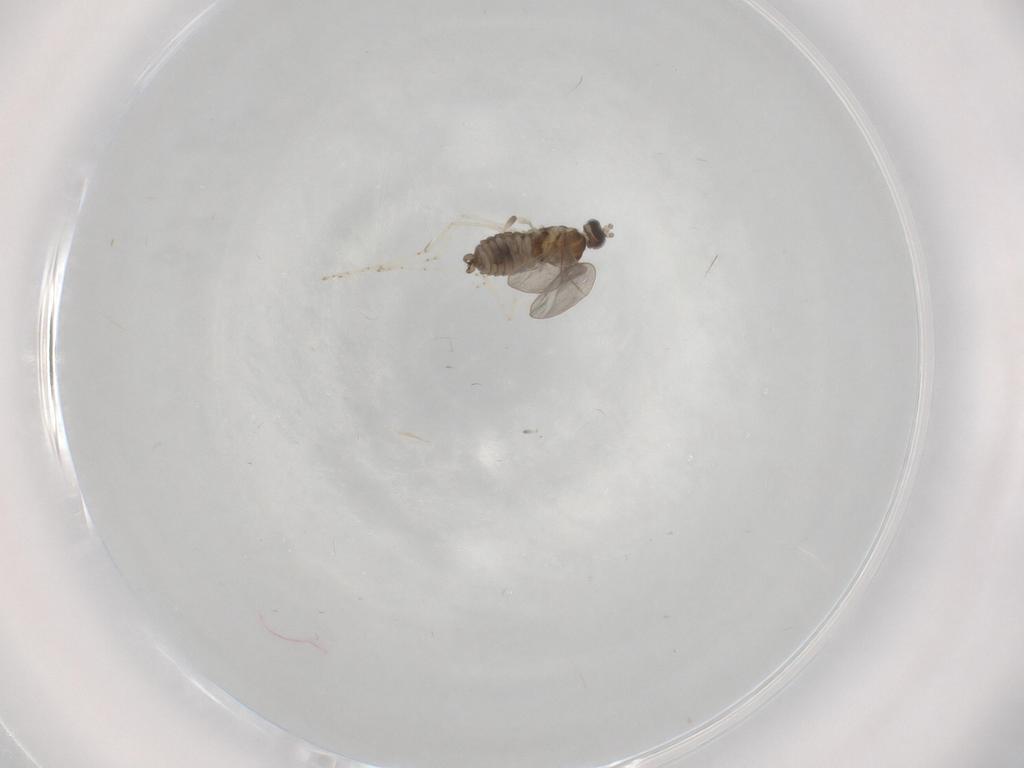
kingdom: Animalia
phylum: Arthropoda
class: Insecta
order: Diptera
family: Cecidomyiidae
